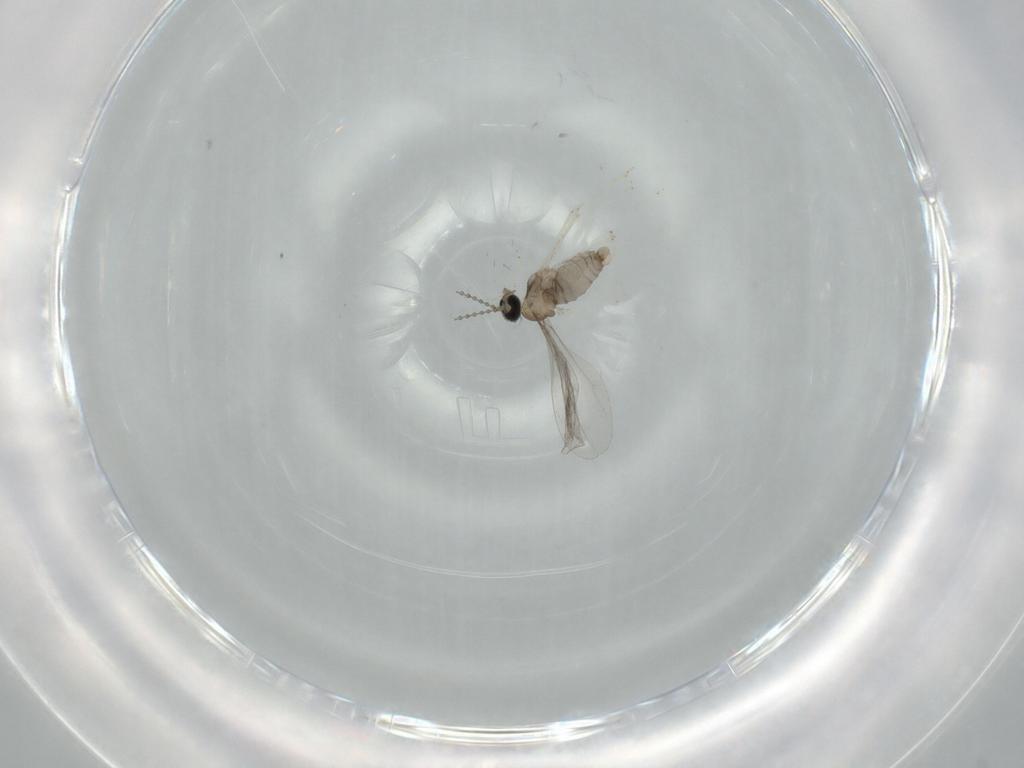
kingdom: Animalia
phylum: Arthropoda
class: Insecta
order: Diptera
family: Cecidomyiidae
